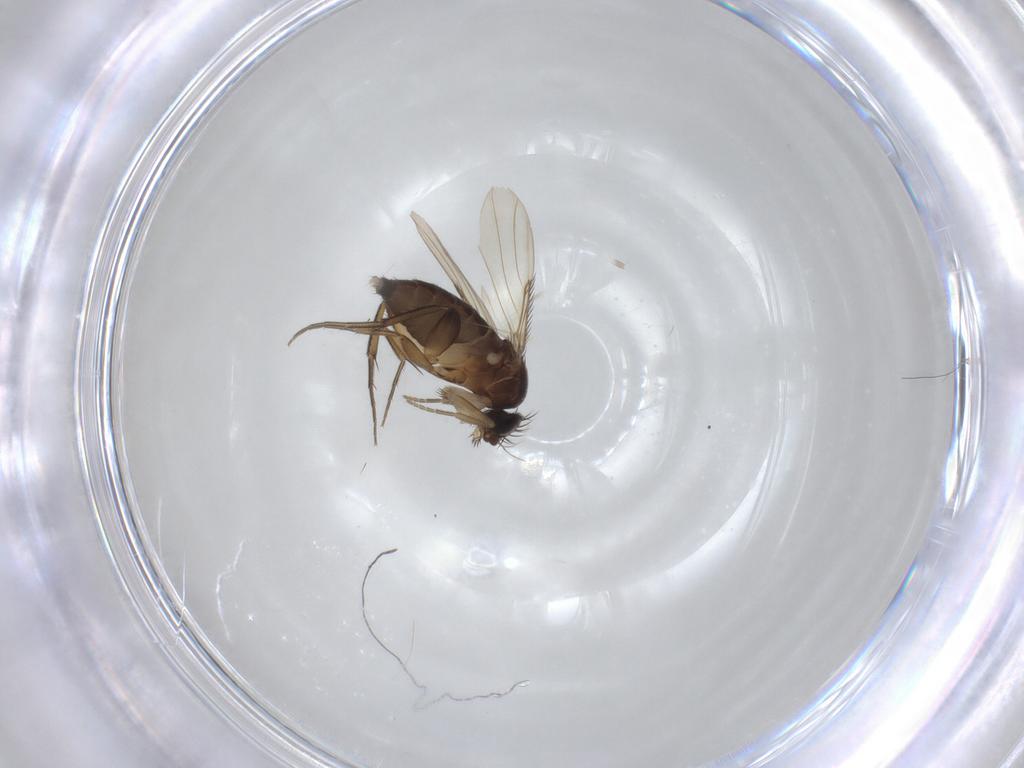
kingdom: Animalia
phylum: Arthropoda
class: Insecta
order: Diptera
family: Phoridae
